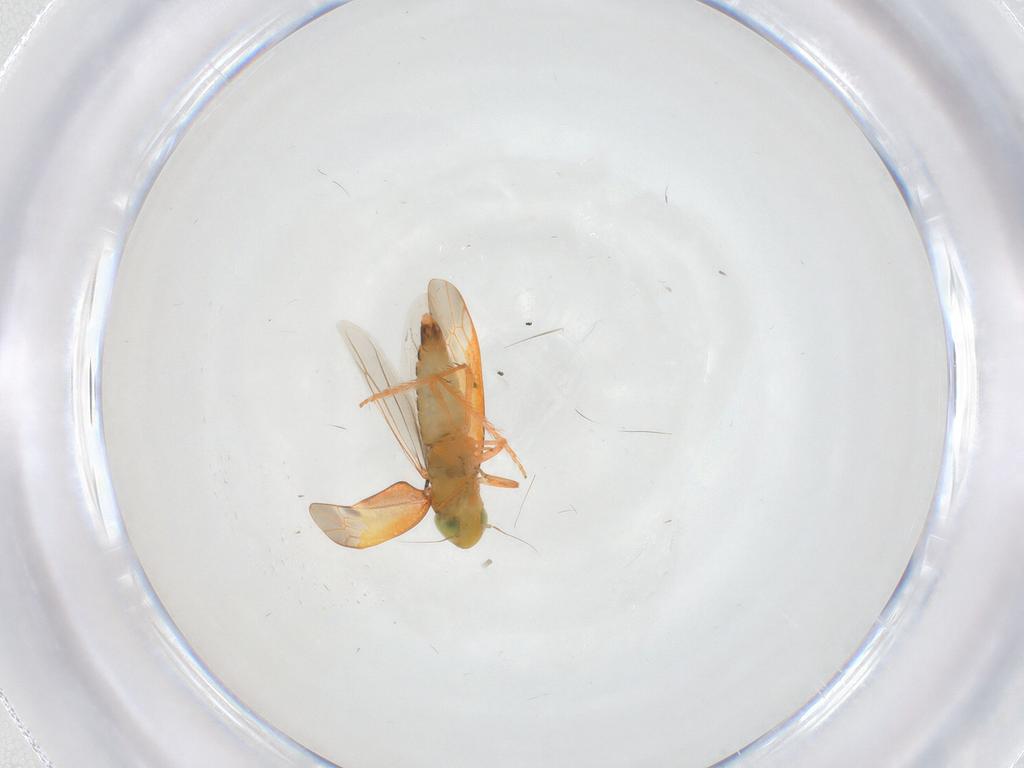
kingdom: Animalia
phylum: Arthropoda
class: Insecta
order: Hemiptera
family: Cicadellidae
